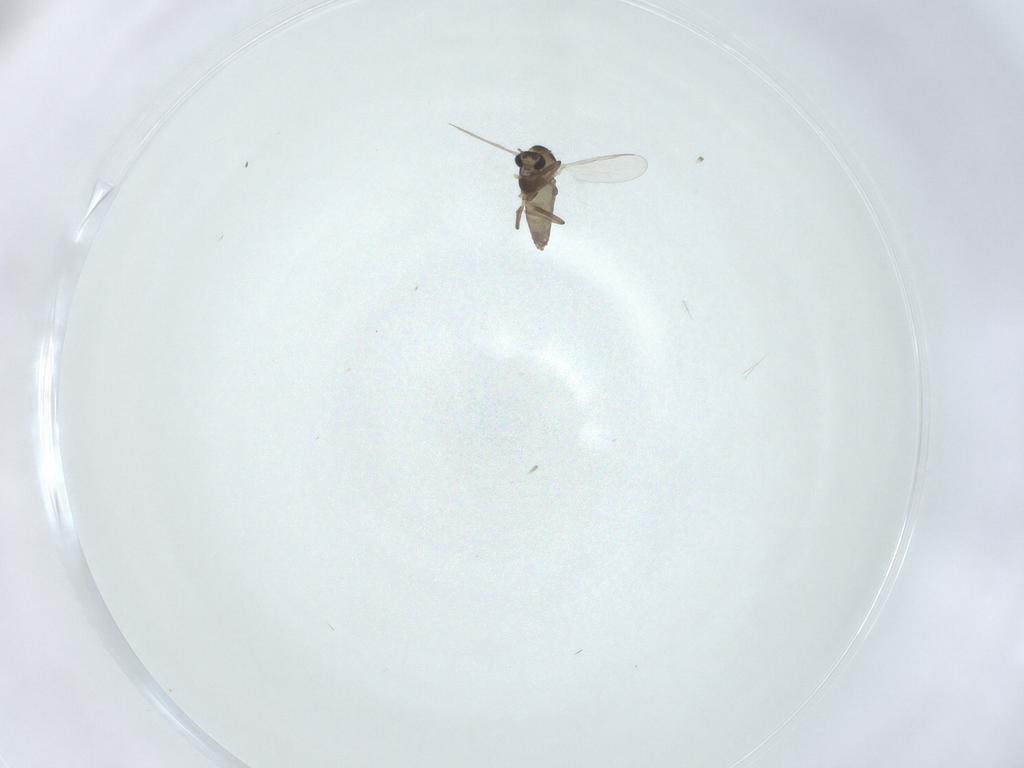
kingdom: Animalia
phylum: Arthropoda
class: Insecta
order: Diptera
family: Chironomidae
